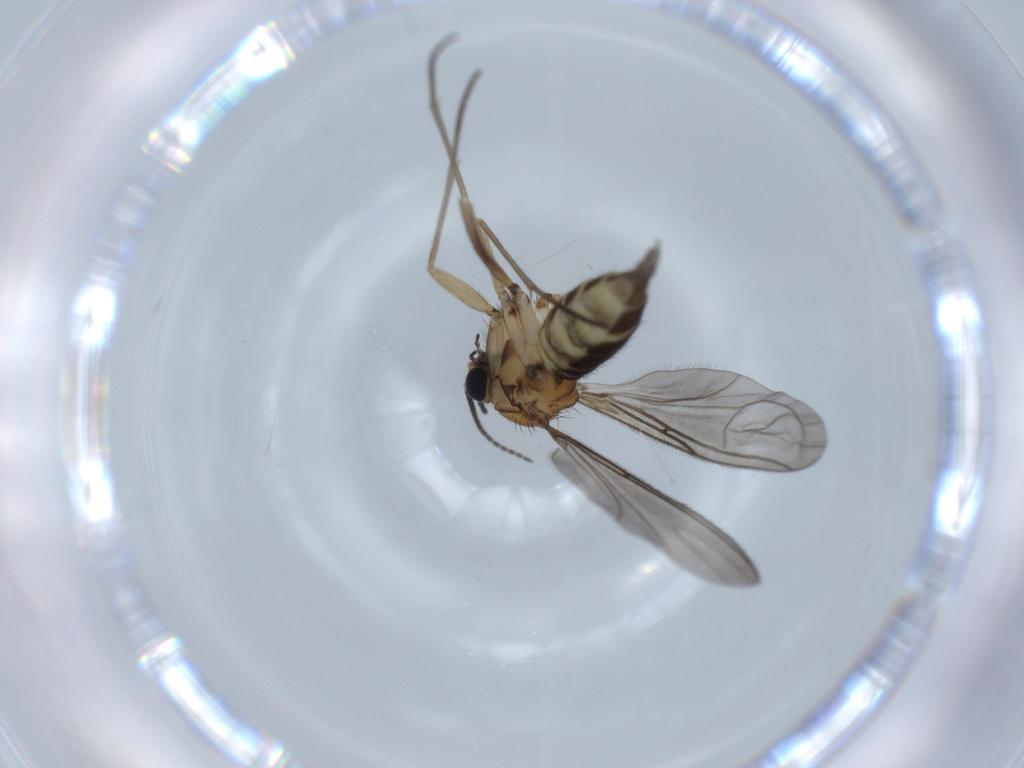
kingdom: Animalia
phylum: Arthropoda
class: Insecta
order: Diptera
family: Sciaridae
